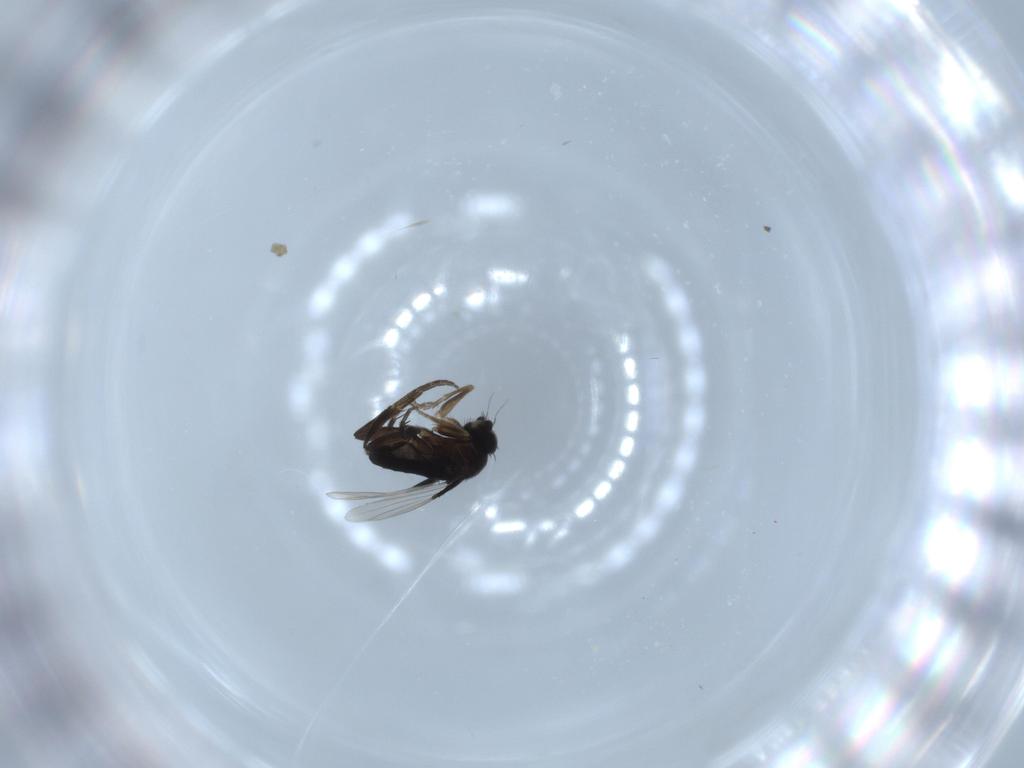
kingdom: Animalia
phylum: Arthropoda
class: Insecta
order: Diptera
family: Phoridae
